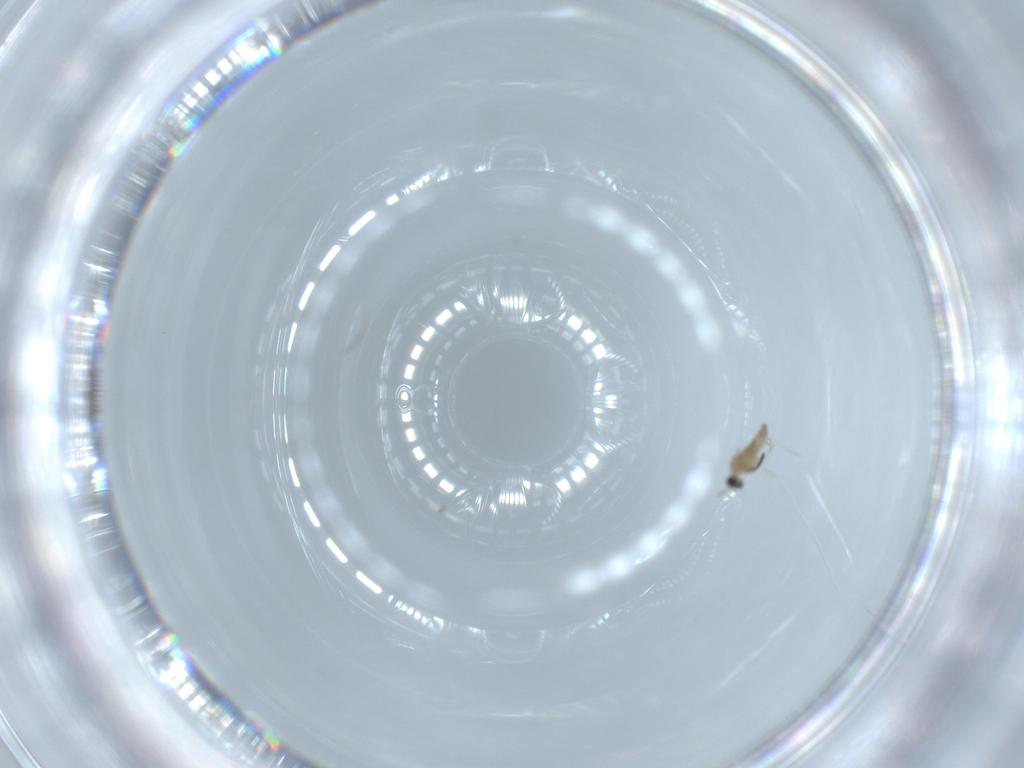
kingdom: Animalia
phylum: Arthropoda
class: Insecta
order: Diptera
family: Cecidomyiidae
